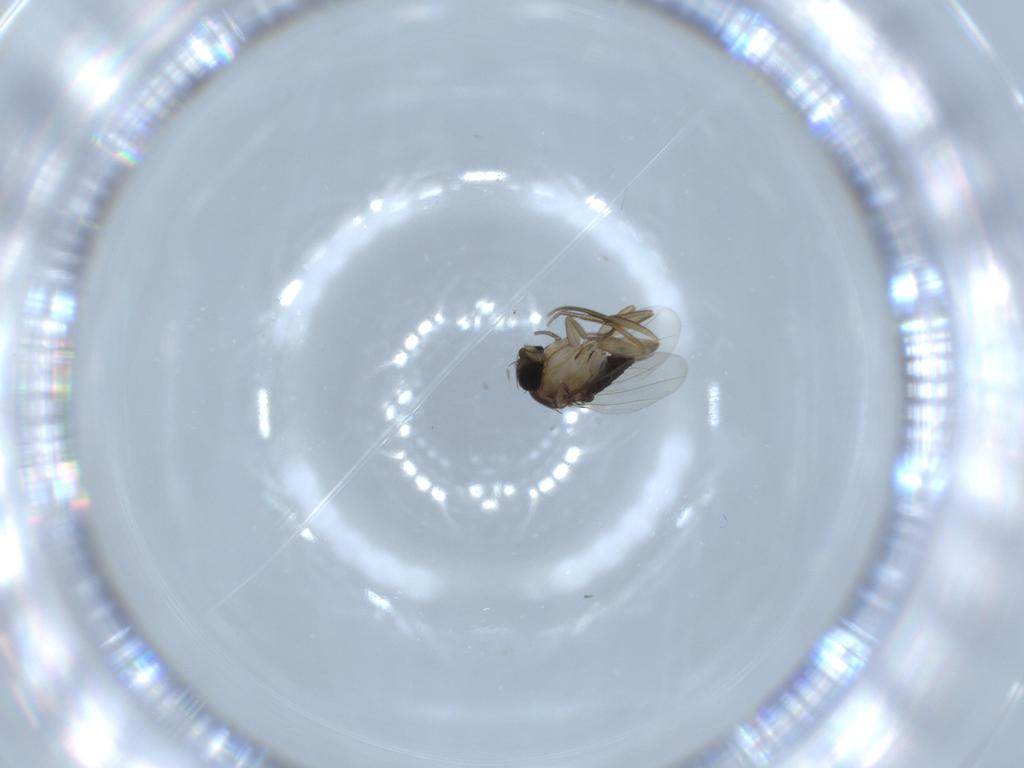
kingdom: Animalia
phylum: Arthropoda
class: Insecta
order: Diptera
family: Phoridae
